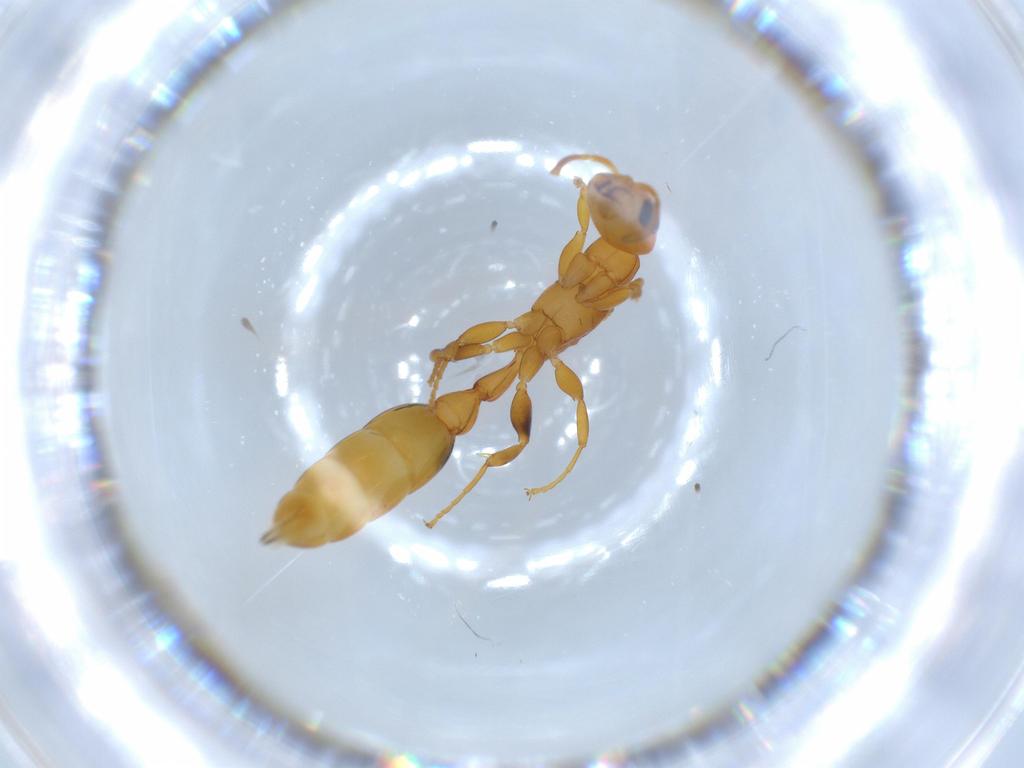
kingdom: Animalia
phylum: Arthropoda
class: Insecta
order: Hymenoptera
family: Formicidae
